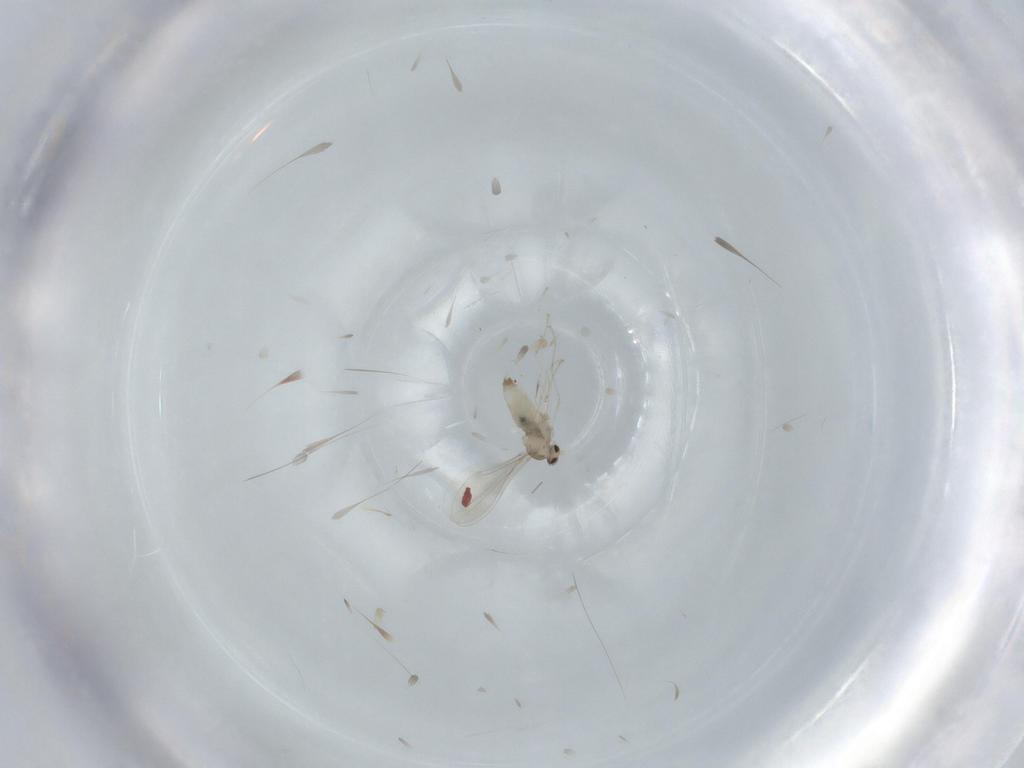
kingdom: Animalia
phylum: Arthropoda
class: Insecta
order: Diptera
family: Cecidomyiidae
